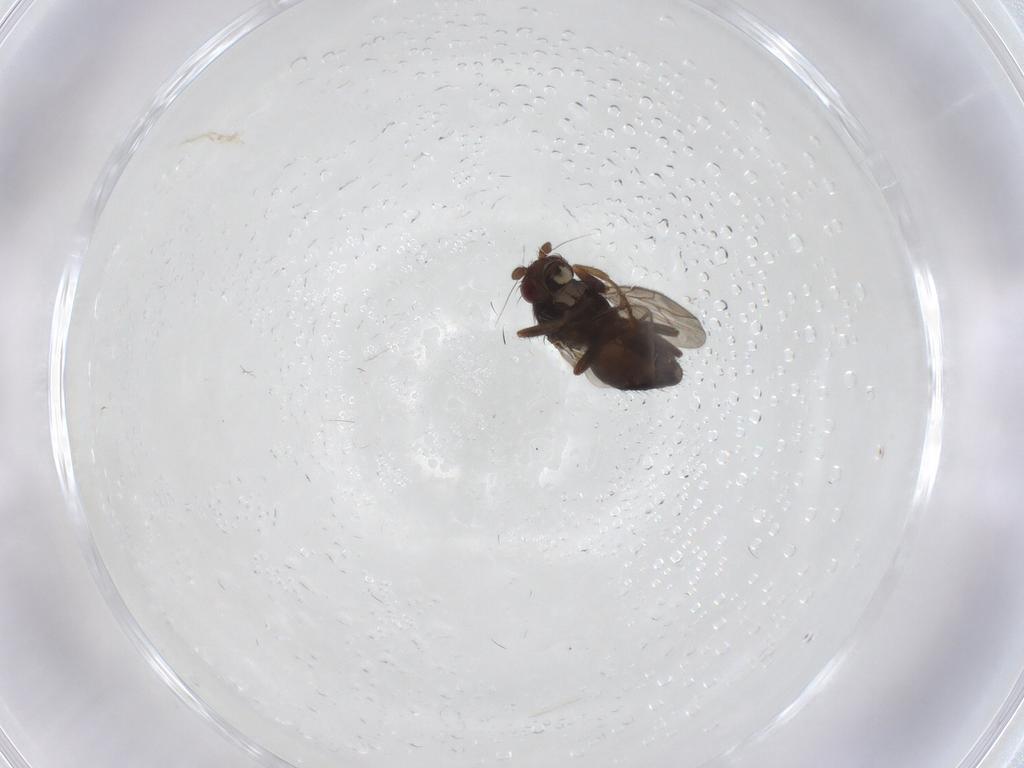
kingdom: Animalia
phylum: Arthropoda
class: Insecta
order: Diptera
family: Sphaeroceridae
